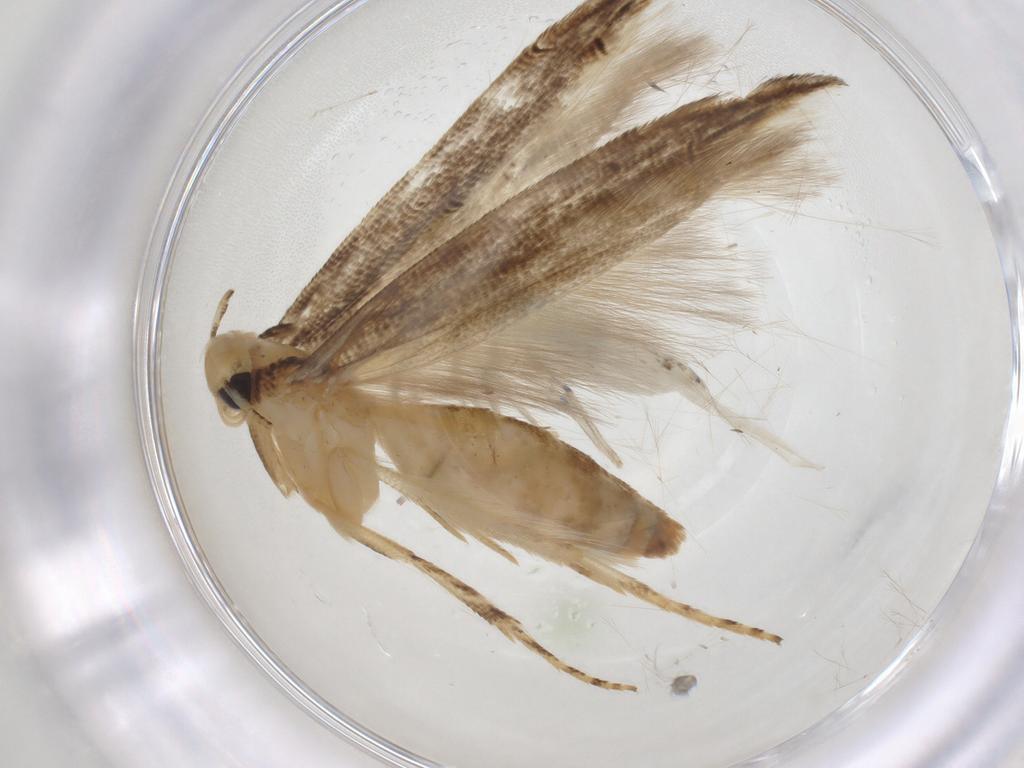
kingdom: Animalia
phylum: Arthropoda
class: Insecta
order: Lepidoptera
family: Momphidae
